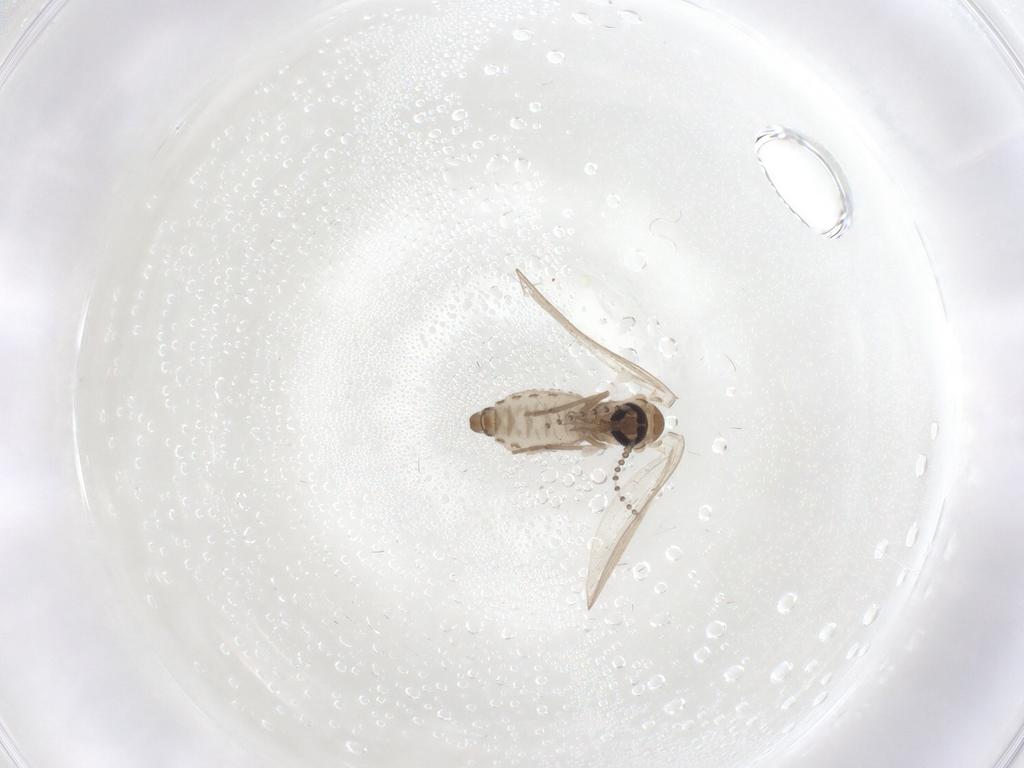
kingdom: Animalia
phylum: Arthropoda
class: Insecta
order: Diptera
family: Psychodidae
